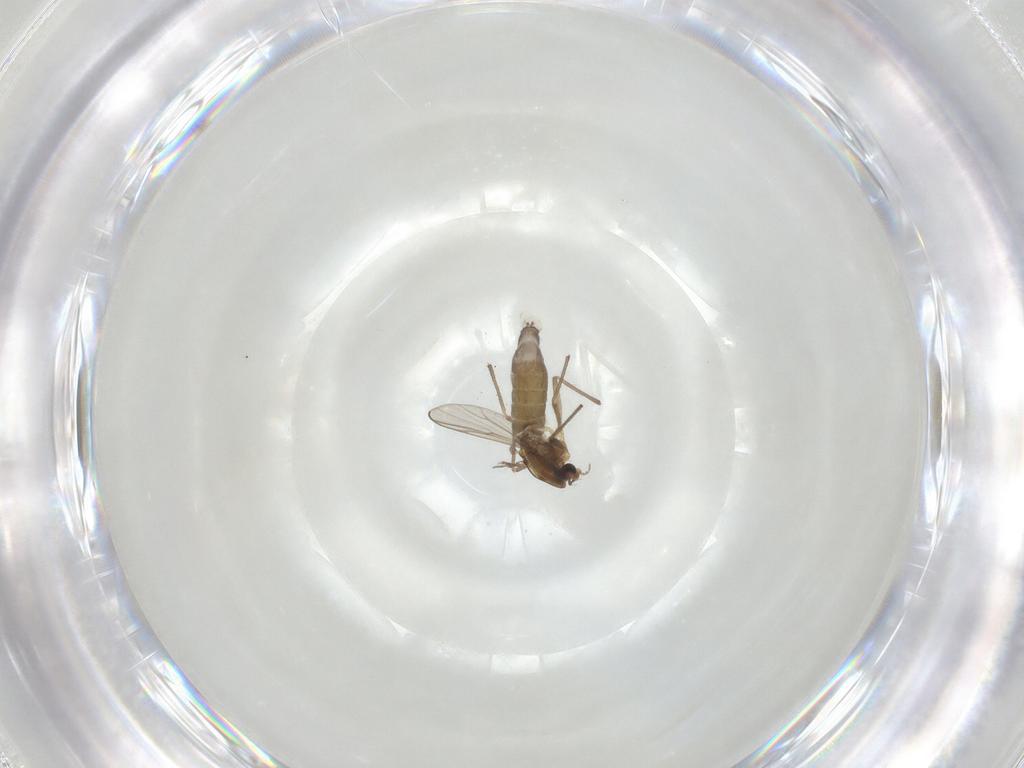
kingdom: Animalia
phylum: Arthropoda
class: Insecta
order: Diptera
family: Chironomidae
